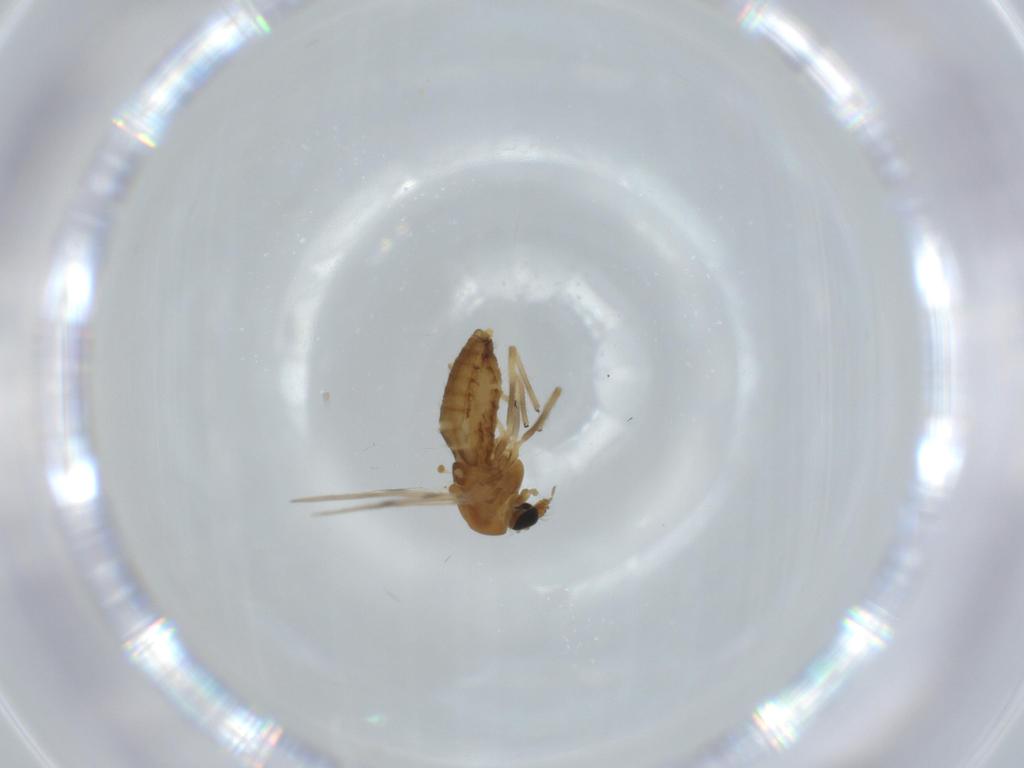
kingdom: Animalia
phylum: Arthropoda
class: Insecta
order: Diptera
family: Chironomidae
